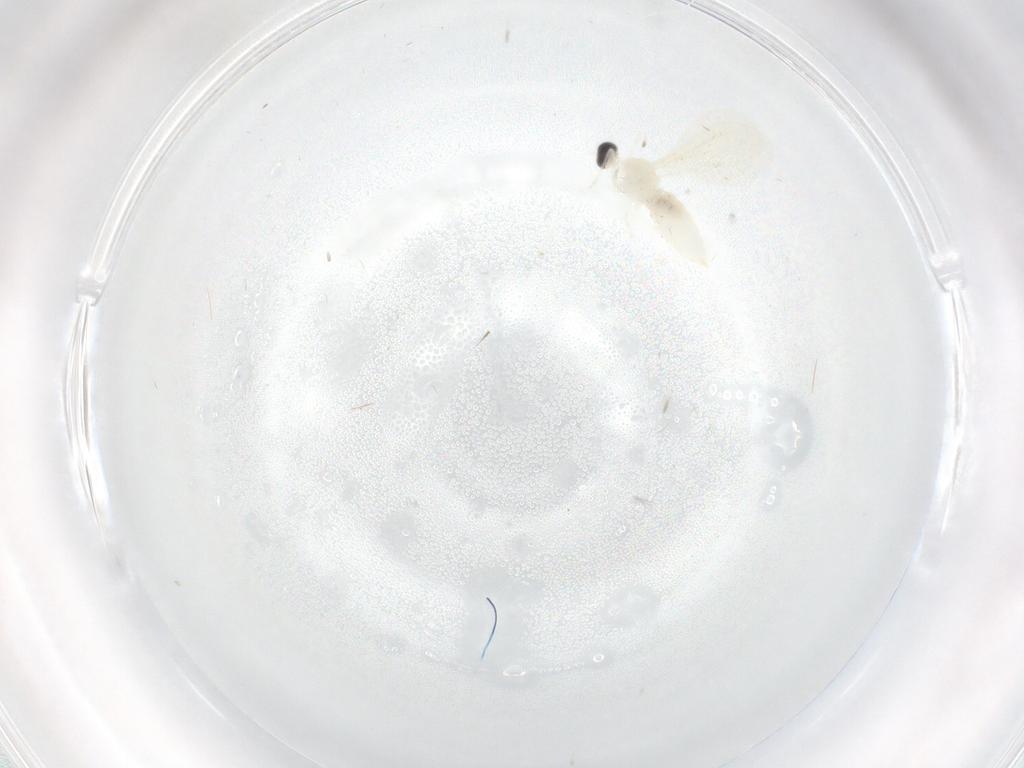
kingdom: Animalia
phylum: Arthropoda
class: Insecta
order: Diptera
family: Cecidomyiidae
